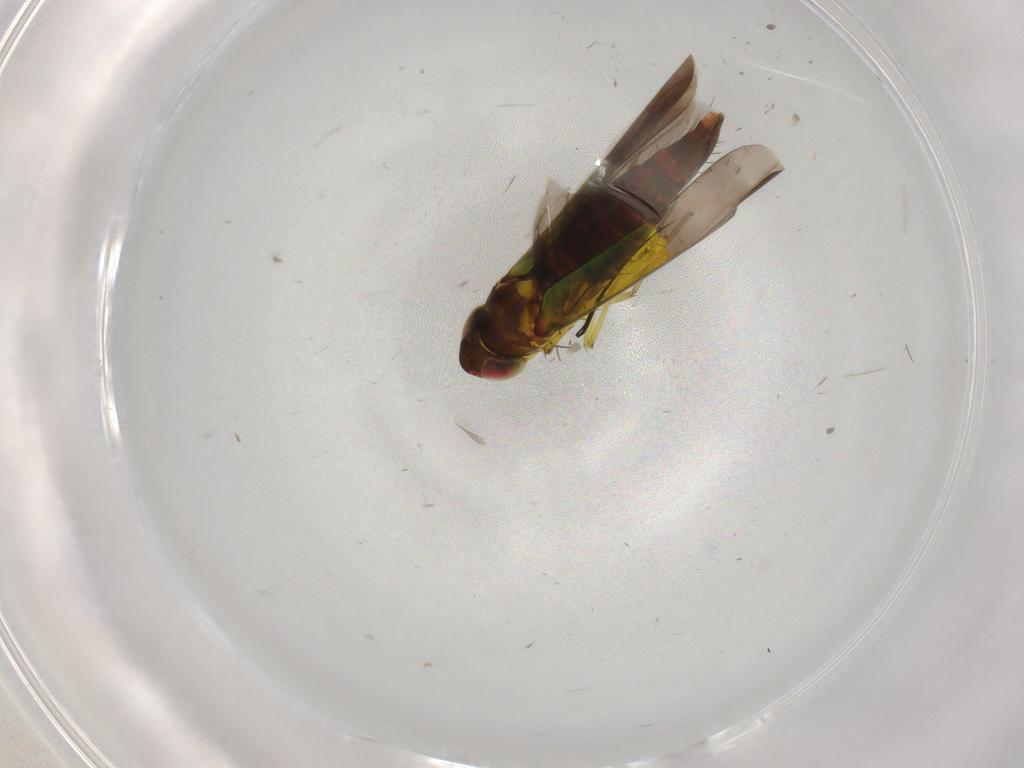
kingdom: Animalia
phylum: Arthropoda
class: Insecta
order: Hemiptera
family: Cicadellidae
